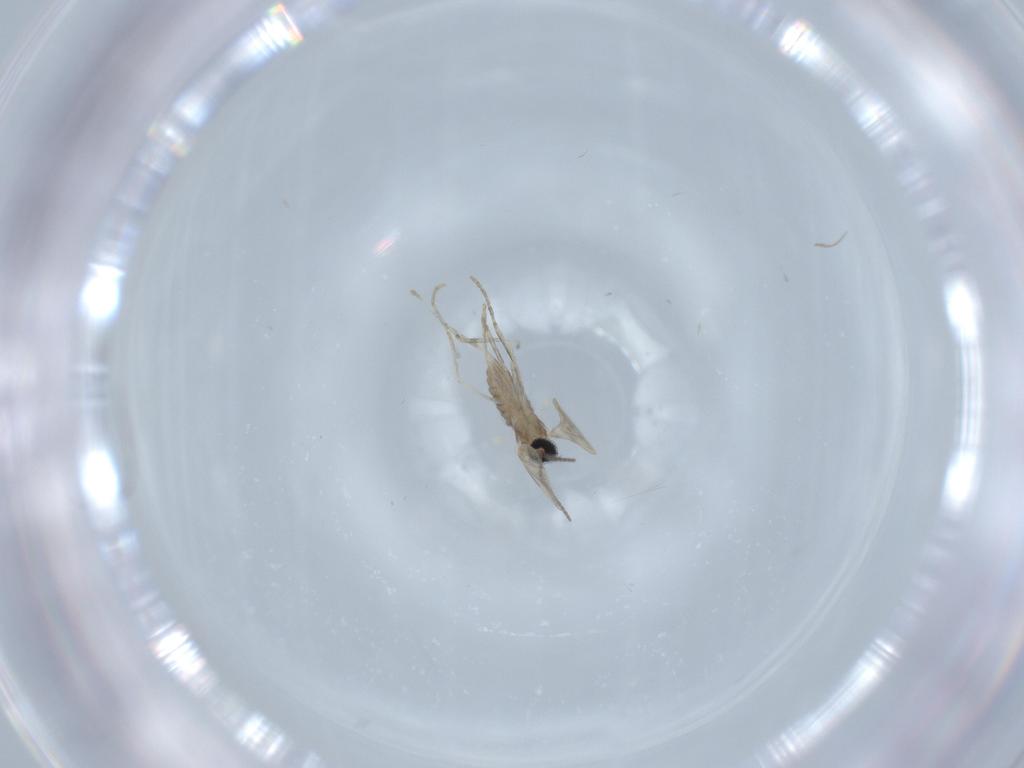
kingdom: Animalia
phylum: Arthropoda
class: Insecta
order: Diptera
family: Cecidomyiidae
